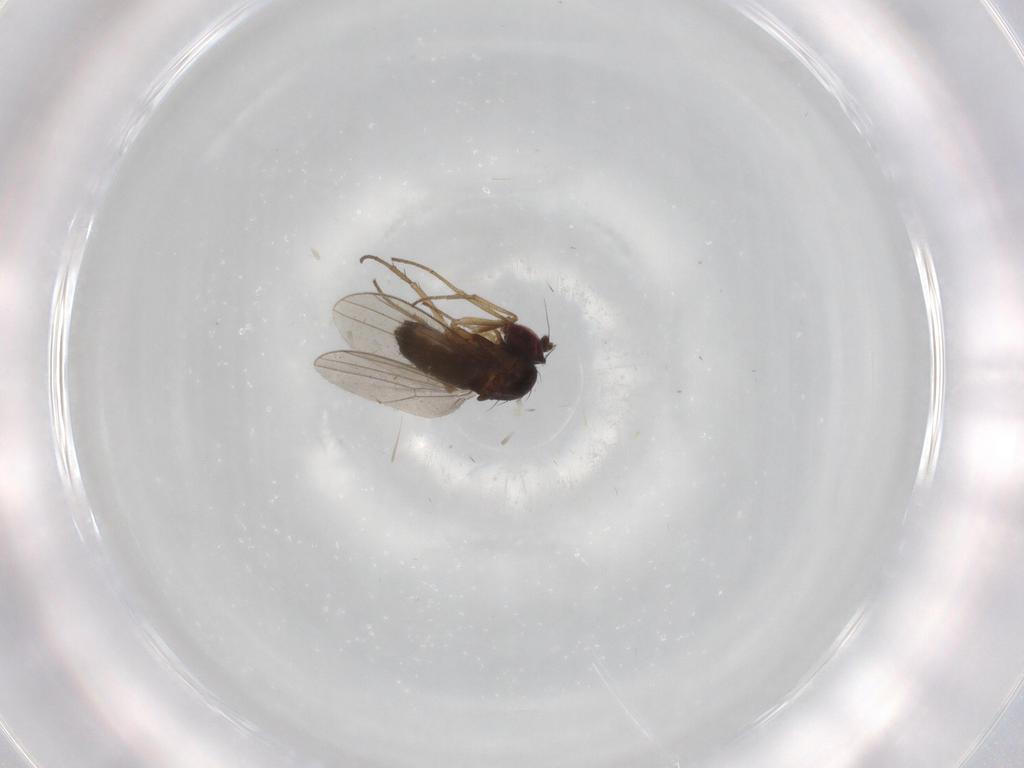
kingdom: Animalia
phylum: Arthropoda
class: Insecta
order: Diptera
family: Dolichopodidae
